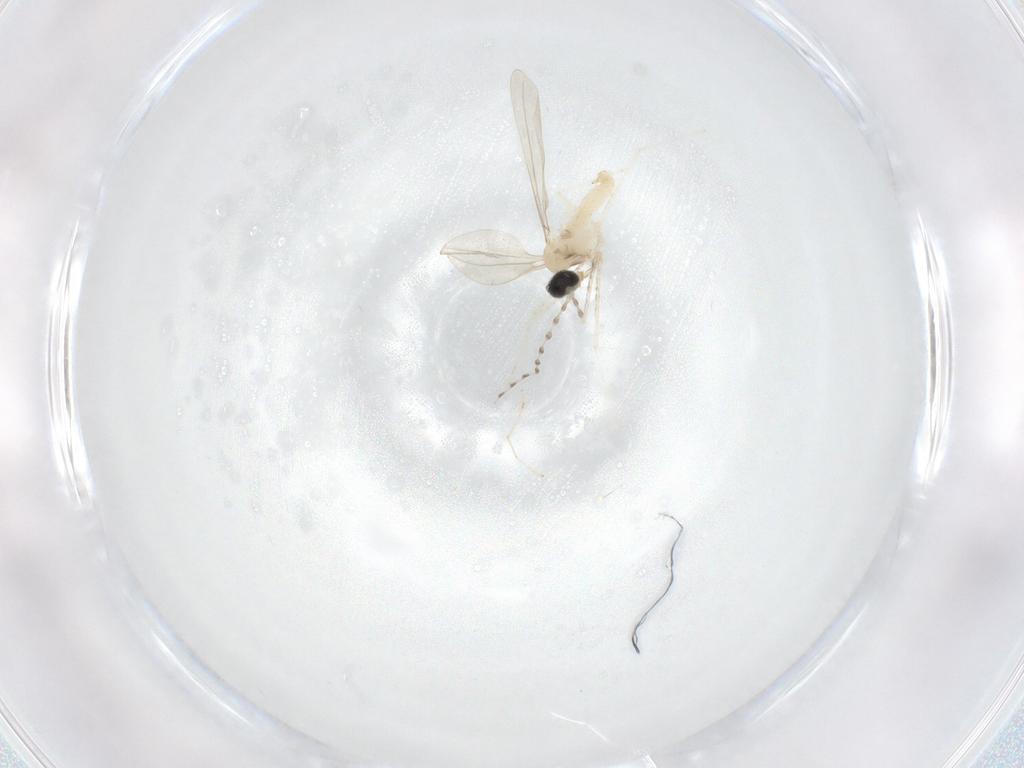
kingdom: Animalia
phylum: Arthropoda
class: Insecta
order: Diptera
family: Cecidomyiidae
